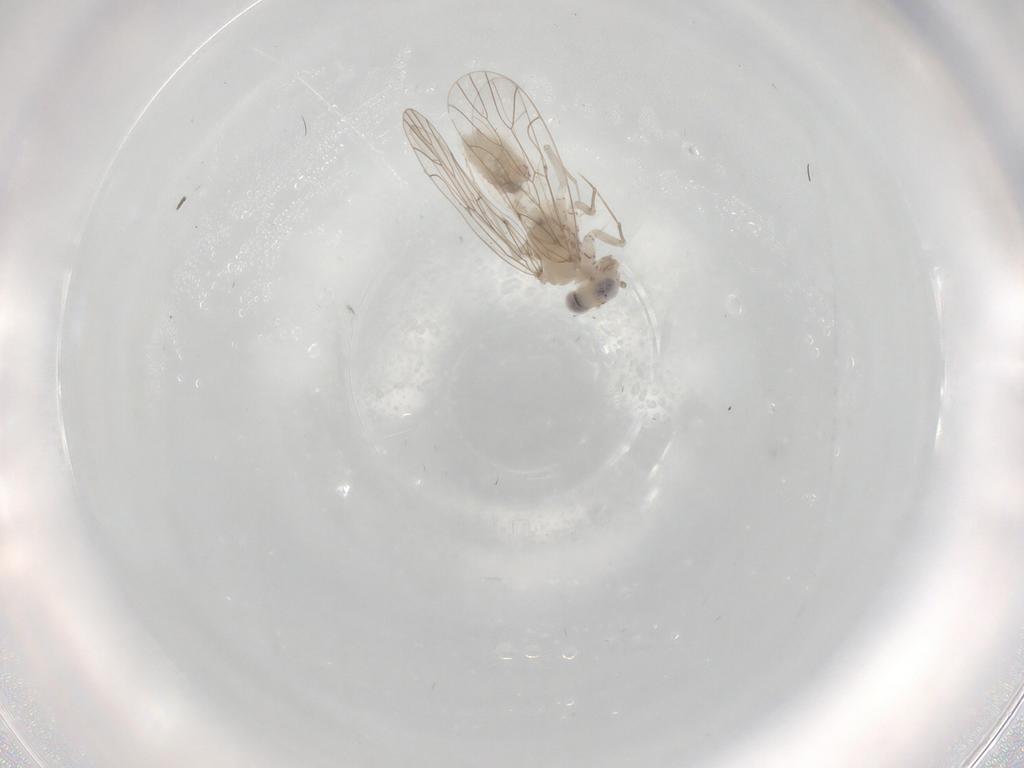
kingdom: Animalia
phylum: Arthropoda
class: Insecta
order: Psocodea
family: Amphientomidae
